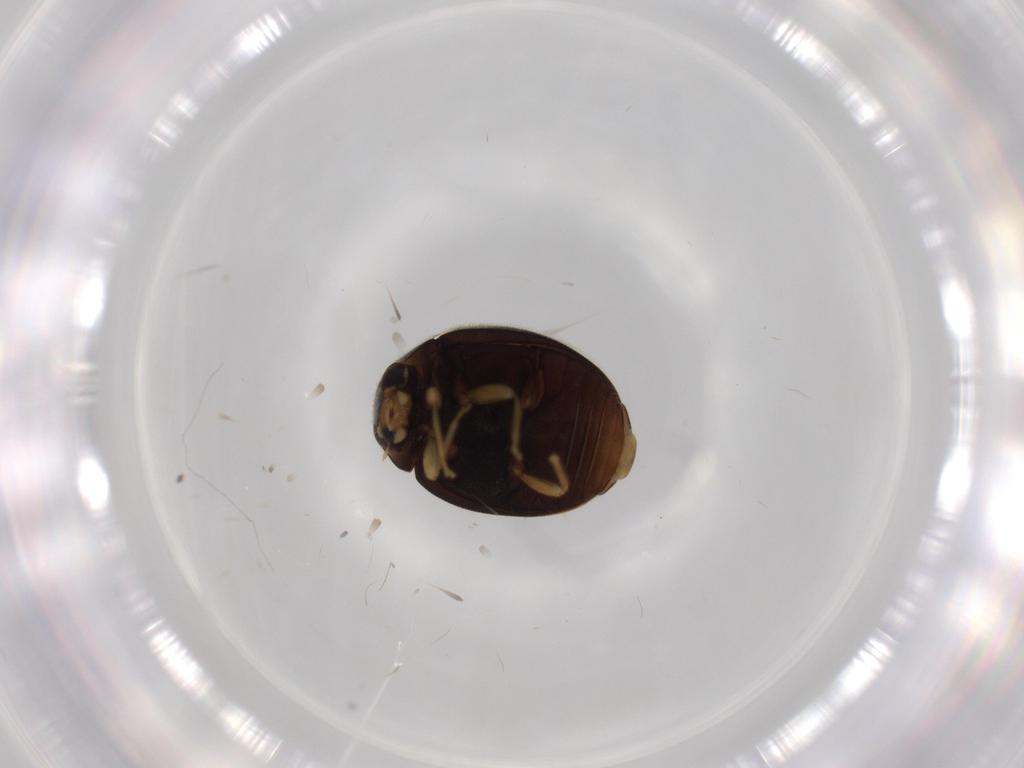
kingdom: Animalia
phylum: Arthropoda
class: Insecta
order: Coleoptera
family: Coccinellidae
